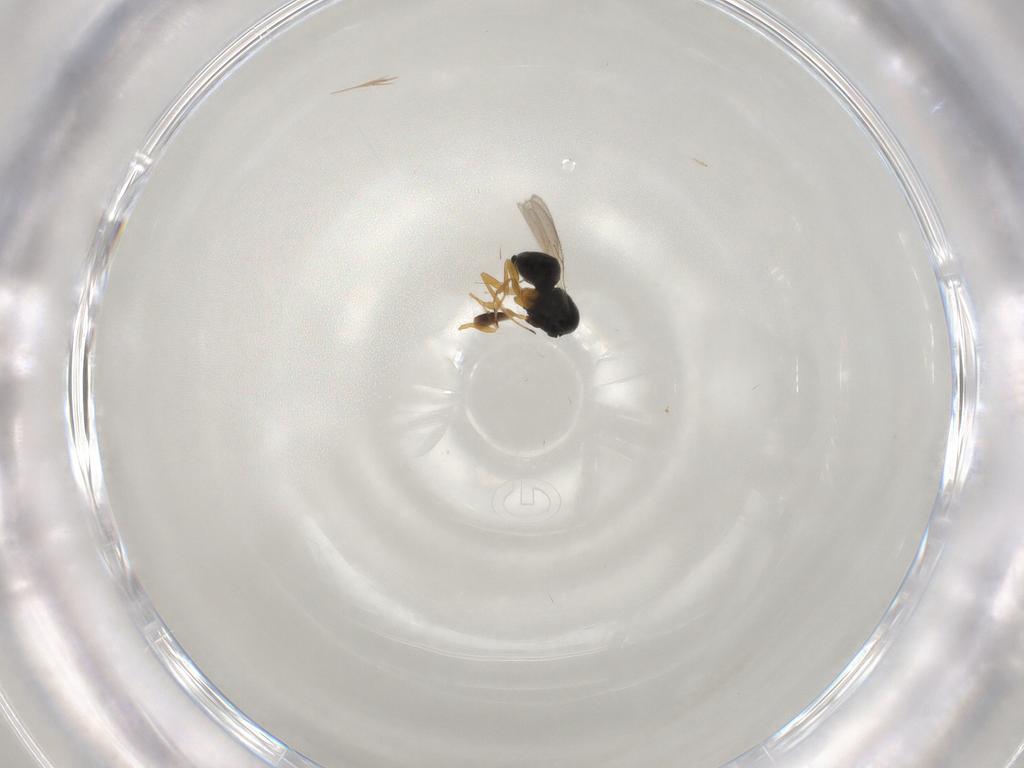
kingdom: Animalia
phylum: Arthropoda
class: Insecta
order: Hymenoptera
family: Scelionidae
